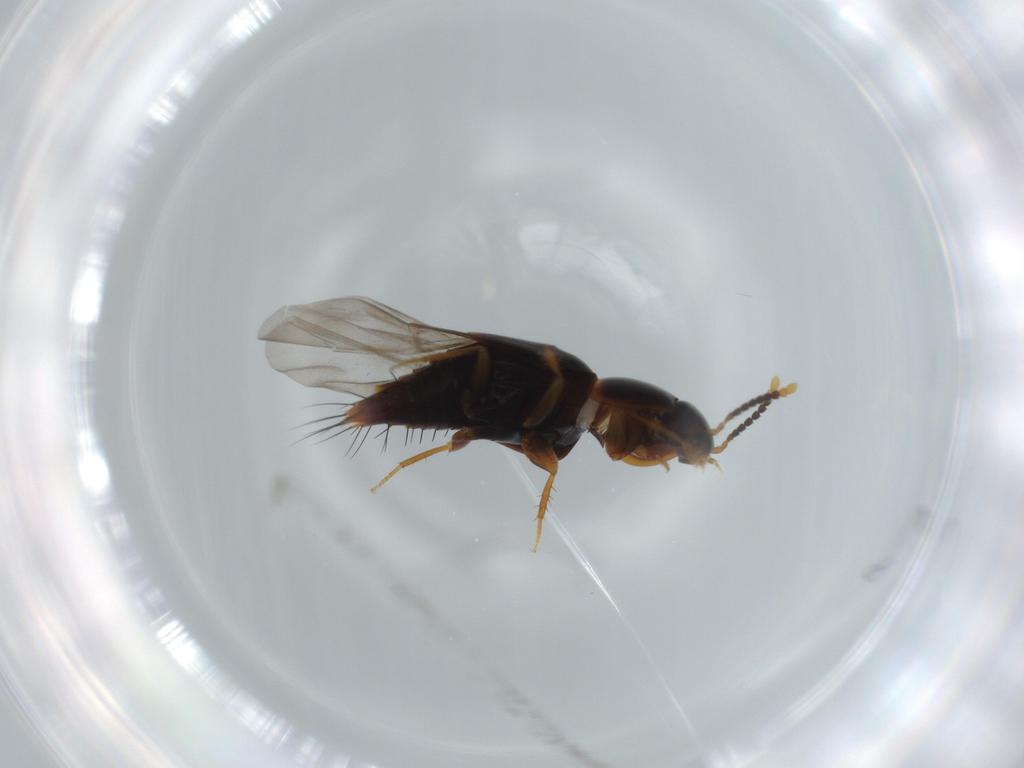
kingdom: Animalia
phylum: Arthropoda
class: Insecta
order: Coleoptera
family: Staphylinidae
